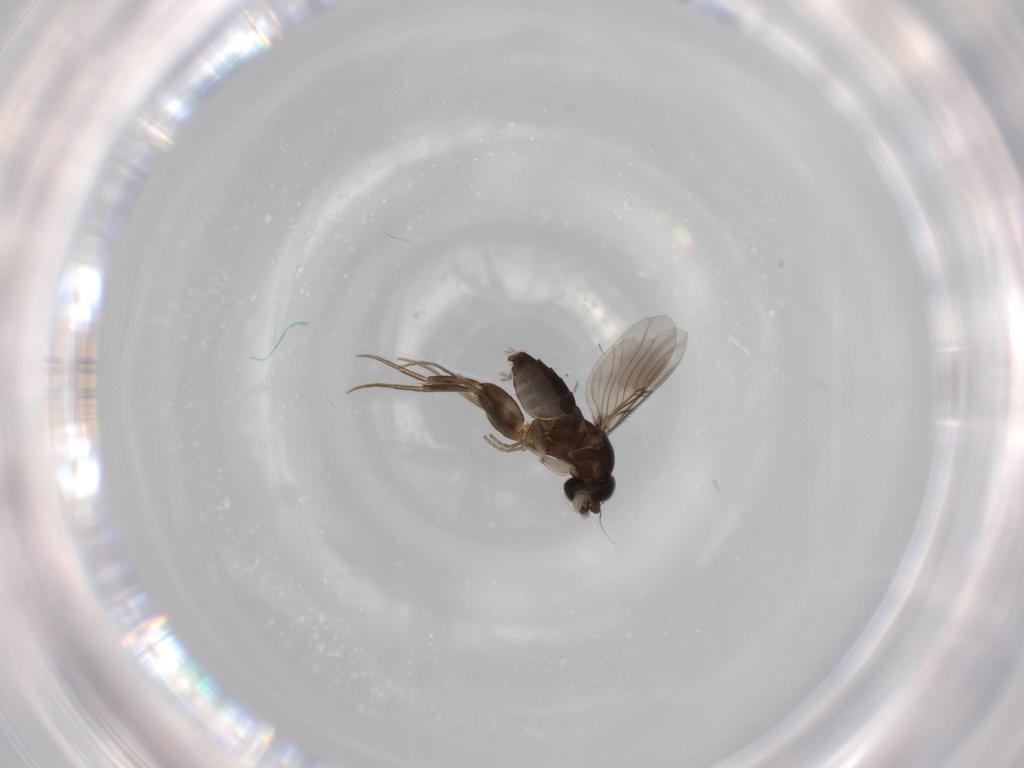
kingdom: Animalia
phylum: Arthropoda
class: Insecta
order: Diptera
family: Phoridae
